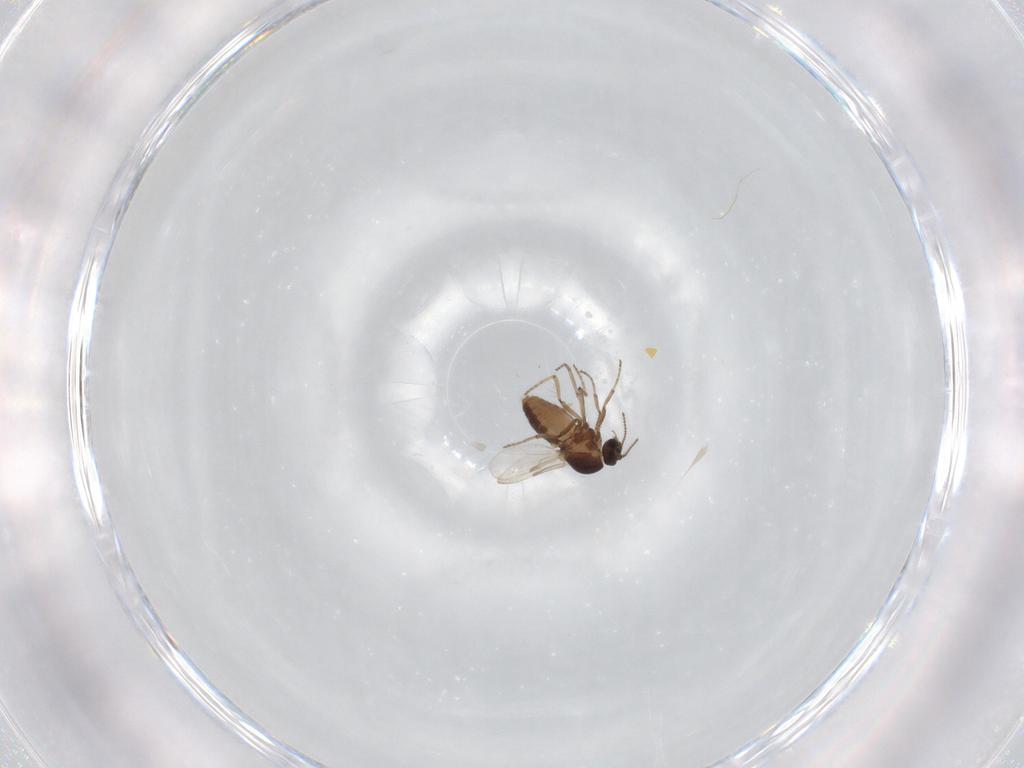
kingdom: Animalia
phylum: Arthropoda
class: Insecta
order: Diptera
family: Ceratopogonidae
